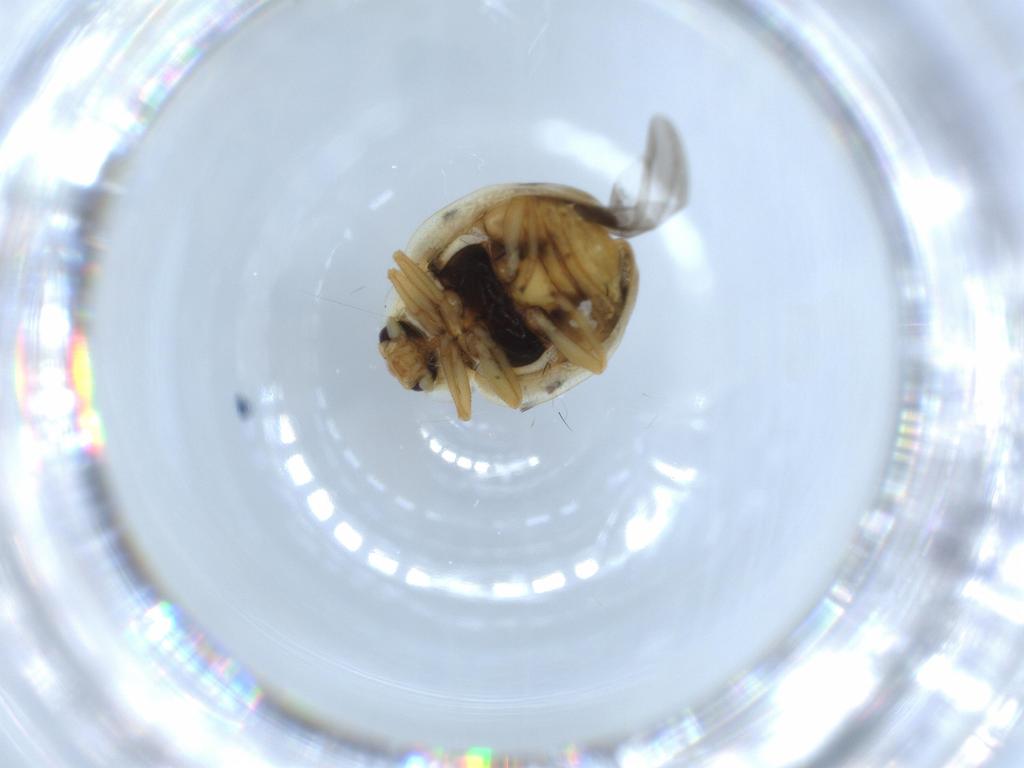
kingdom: Animalia
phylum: Arthropoda
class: Insecta
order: Coleoptera
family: Coccinellidae
